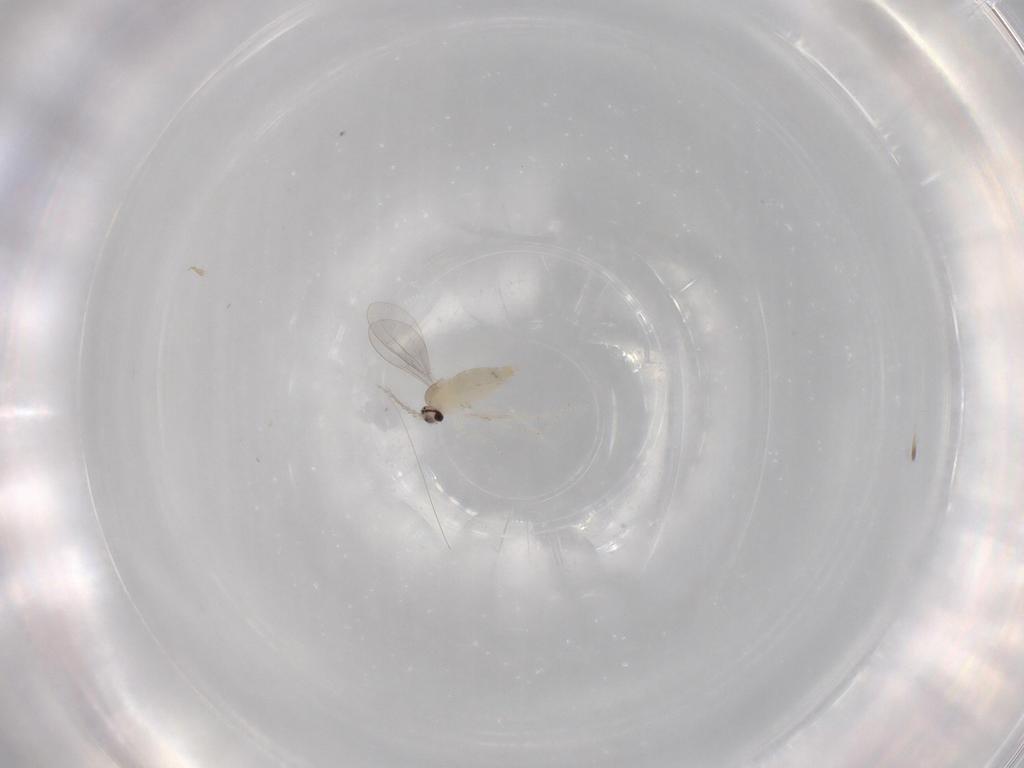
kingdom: Animalia
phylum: Arthropoda
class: Insecta
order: Diptera
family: Cecidomyiidae
